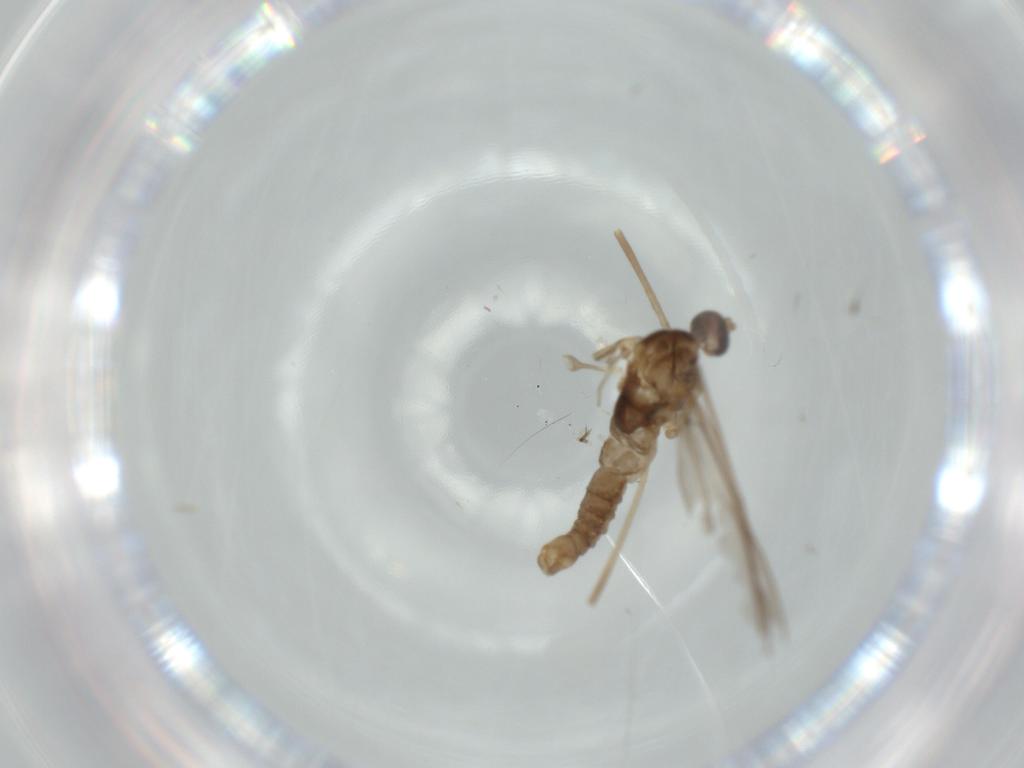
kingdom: Animalia
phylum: Arthropoda
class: Insecta
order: Diptera
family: Cecidomyiidae
